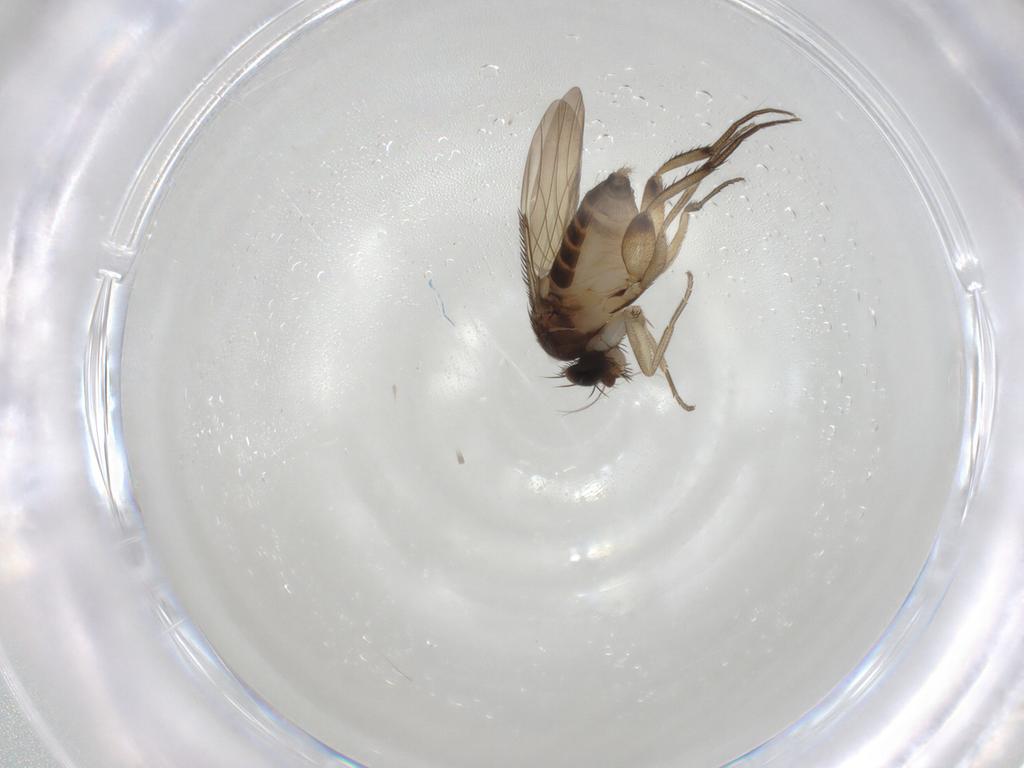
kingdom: Animalia
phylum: Arthropoda
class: Insecta
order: Diptera
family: Phoridae
